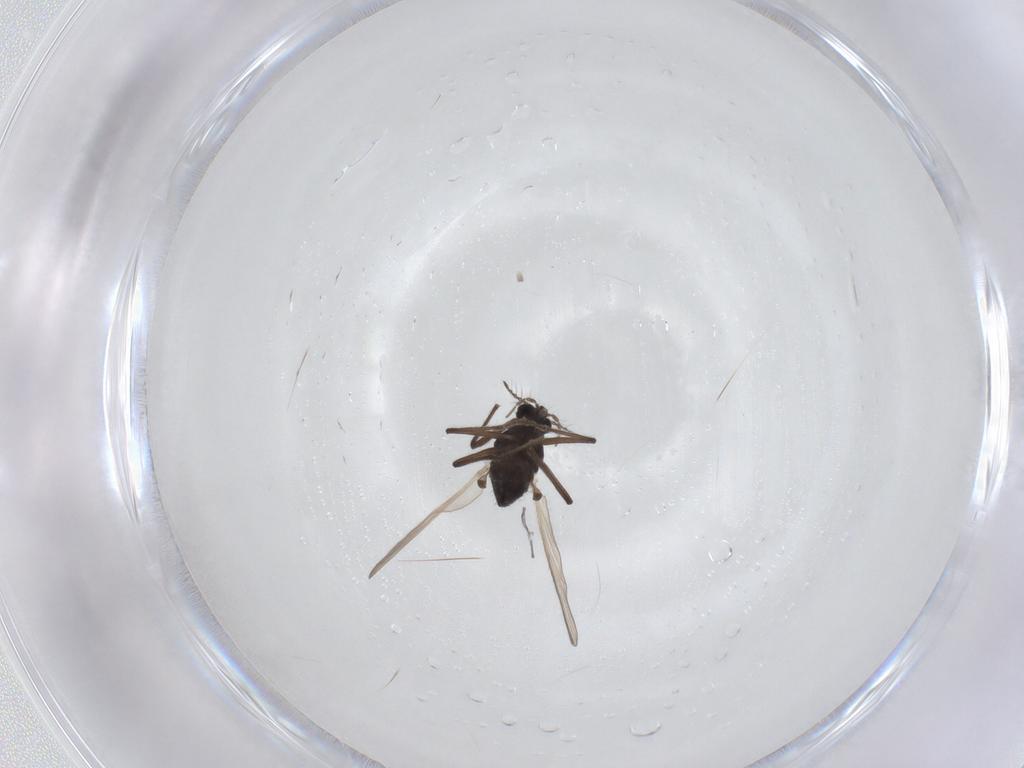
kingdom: Animalia
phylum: Arthropoda
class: Insecta
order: Diptera
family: Chironomidae
